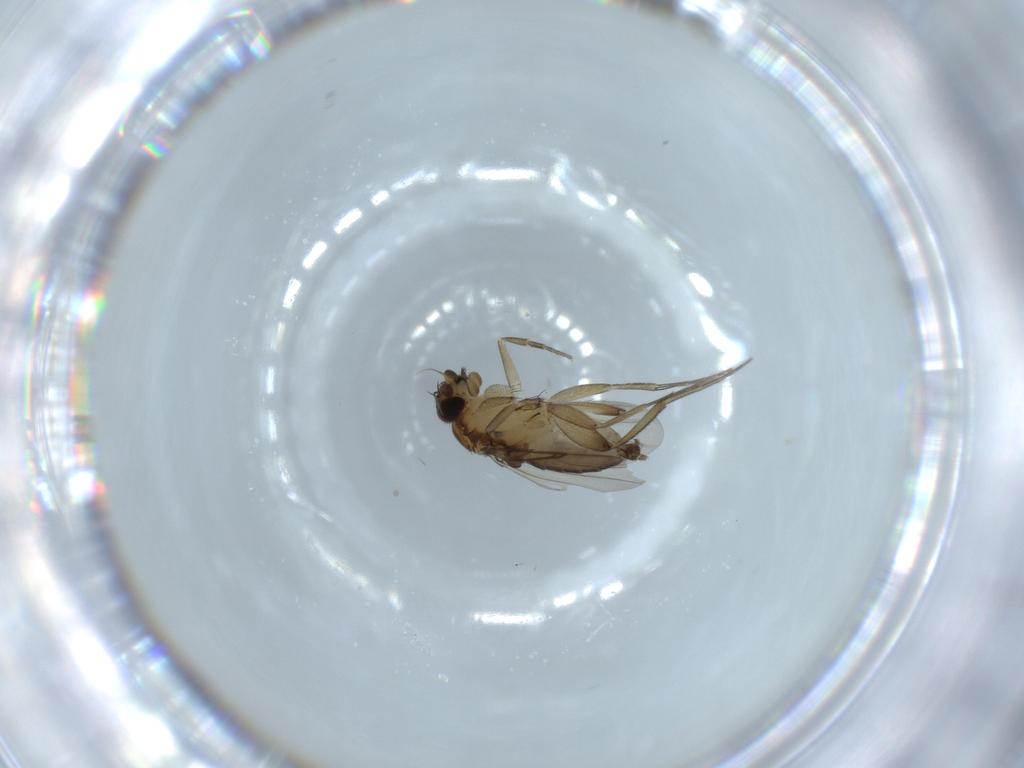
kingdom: Animalia
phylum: Arthropoda
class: Insecta
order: Diptera
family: Phoridae
